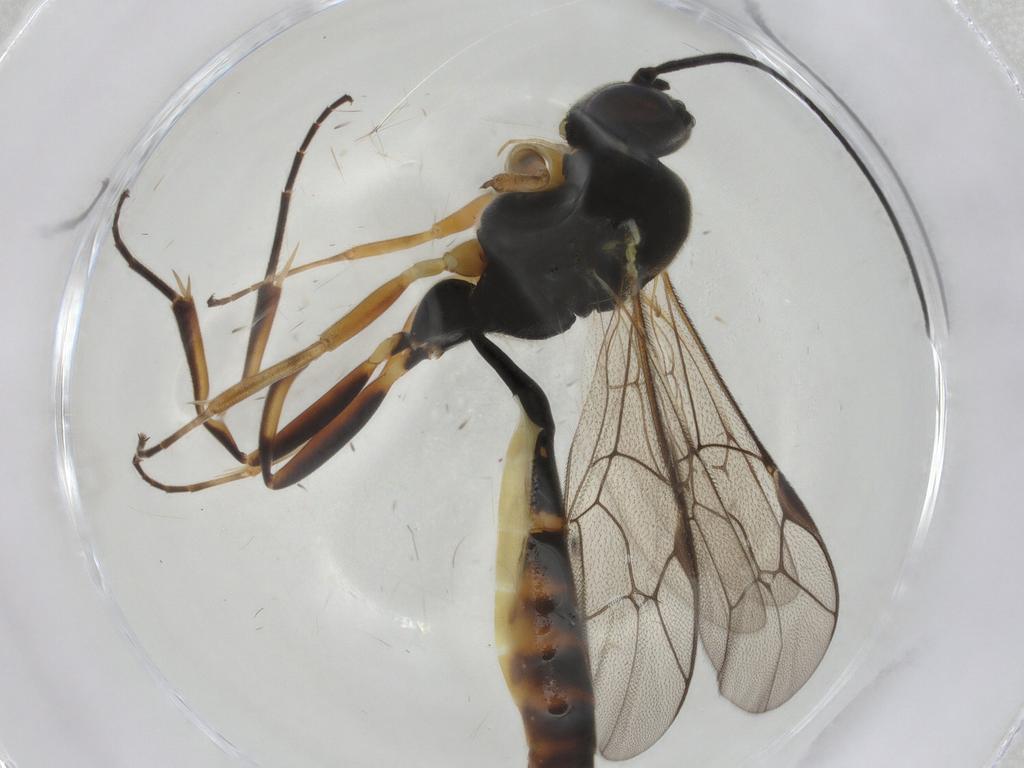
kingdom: Animalia
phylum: Arthropoda
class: Insecta
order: Hymenoptera
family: Ichneumonidae
